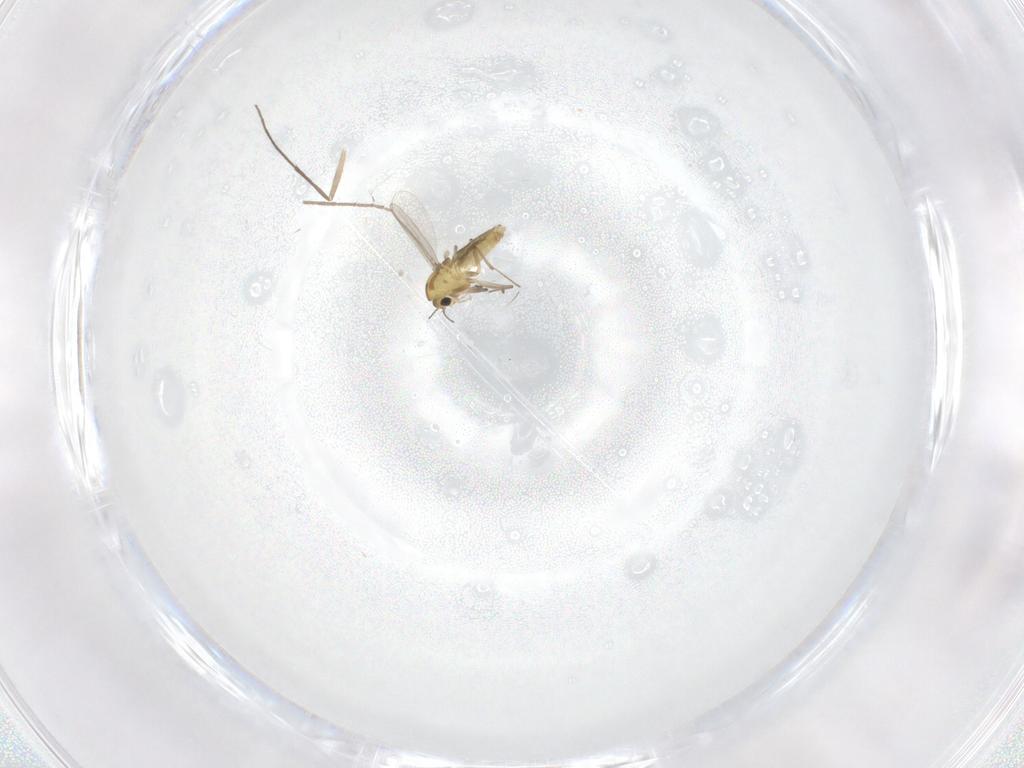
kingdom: Animalia
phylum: Arthropoda
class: Insecta
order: Diptera
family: Chironomidae
